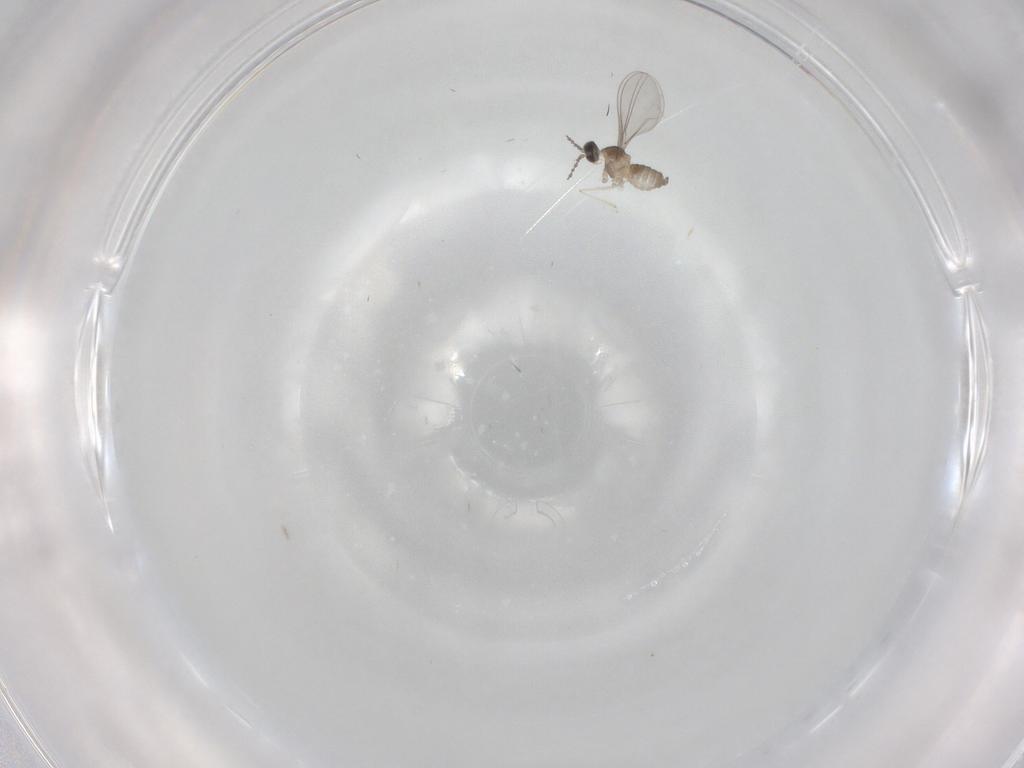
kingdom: Animalia
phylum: Arthropoda
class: Insecta
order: Diptera
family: Cecidomyiidae
